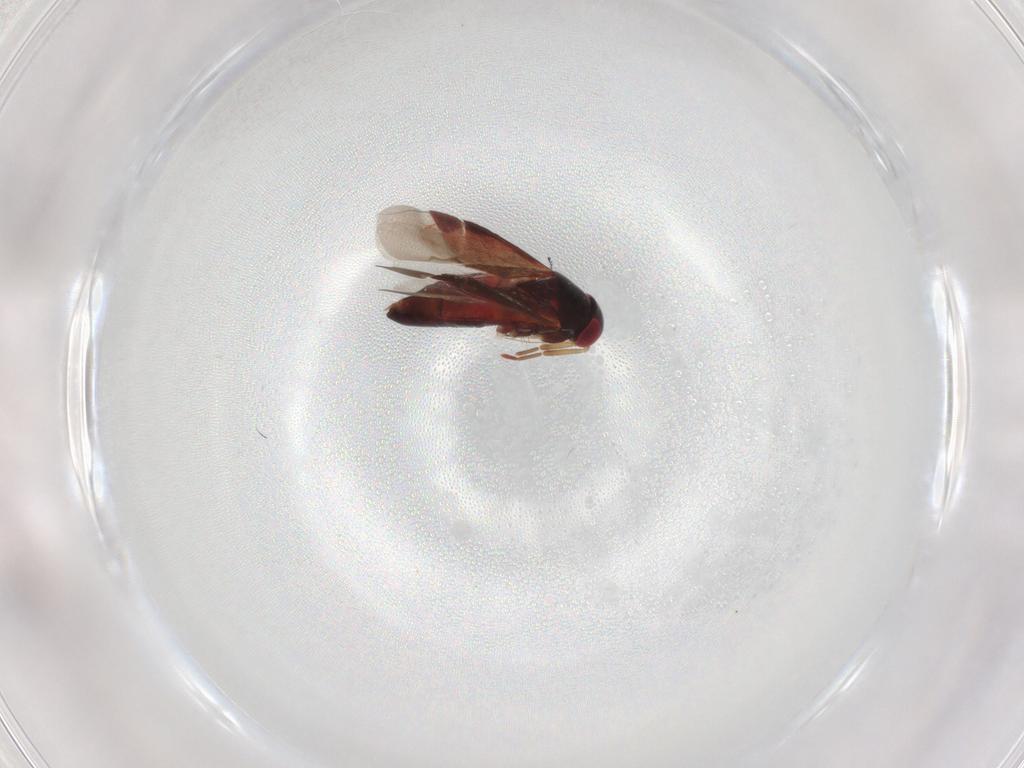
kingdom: Animalia
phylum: Arthropoda
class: Insecta
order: Hemiptera
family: Miridae
